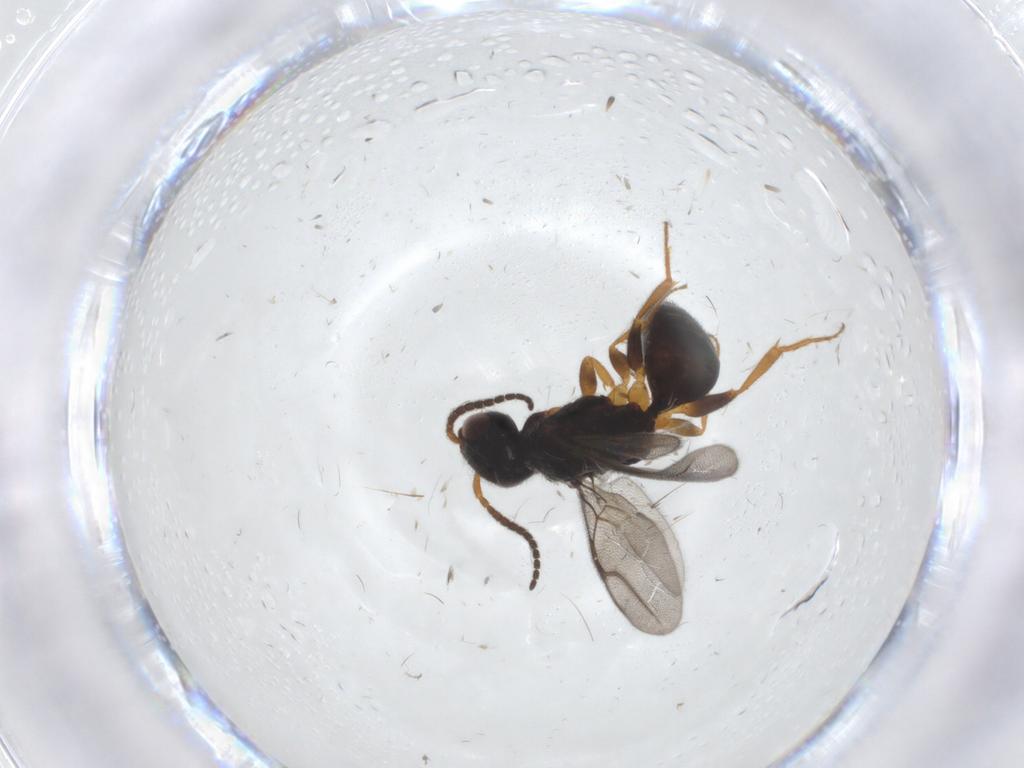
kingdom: Animalia
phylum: Arthropoda
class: Insecta
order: Hymenoptera
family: Bethylidae
